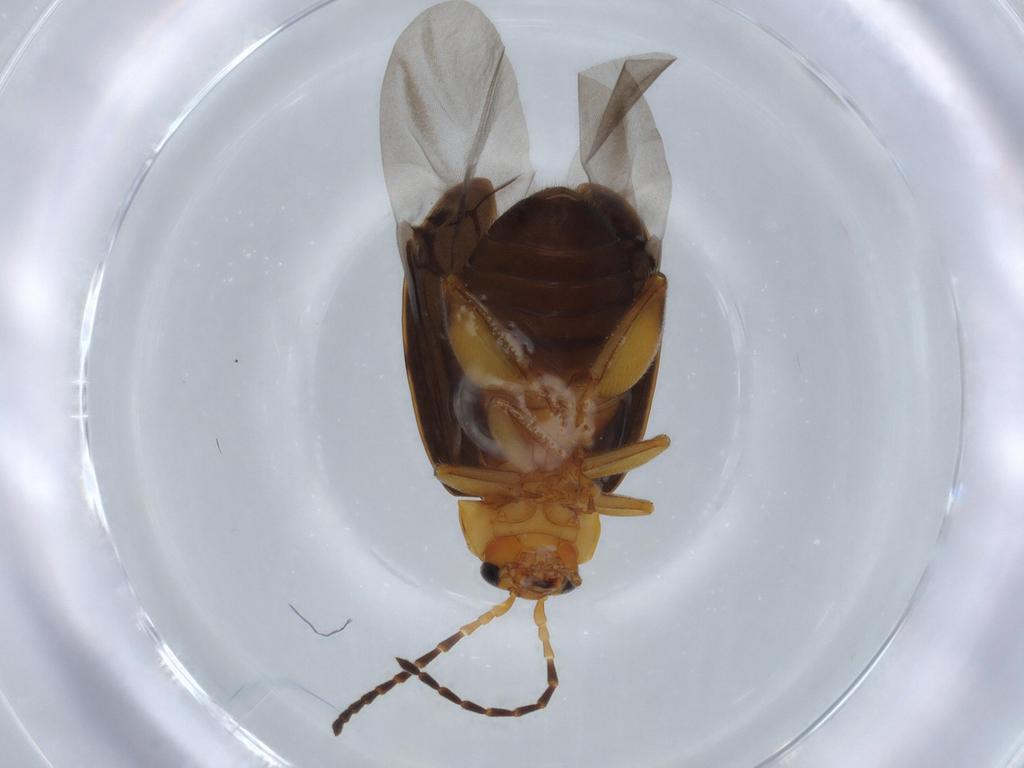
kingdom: Animalia
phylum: Arthropoda
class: Insecta
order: Coleoptera
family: Chrysomelidae
